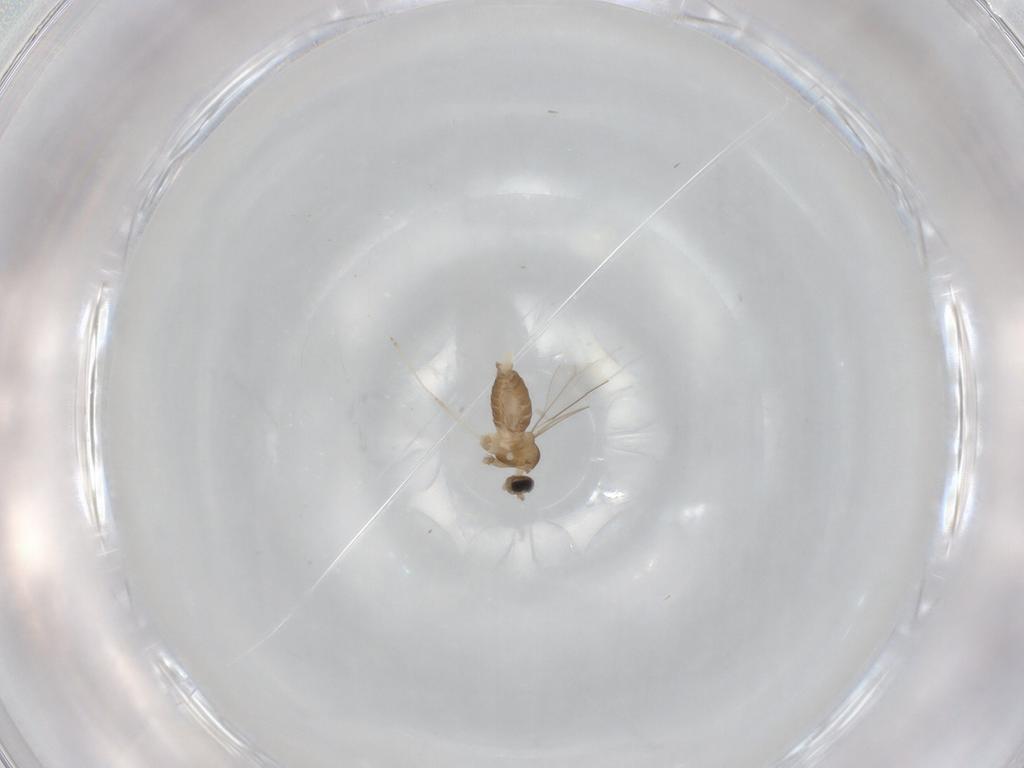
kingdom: Animalia
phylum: Arthropoda
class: Insecta
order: Diptera
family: Cecidomyiidae
